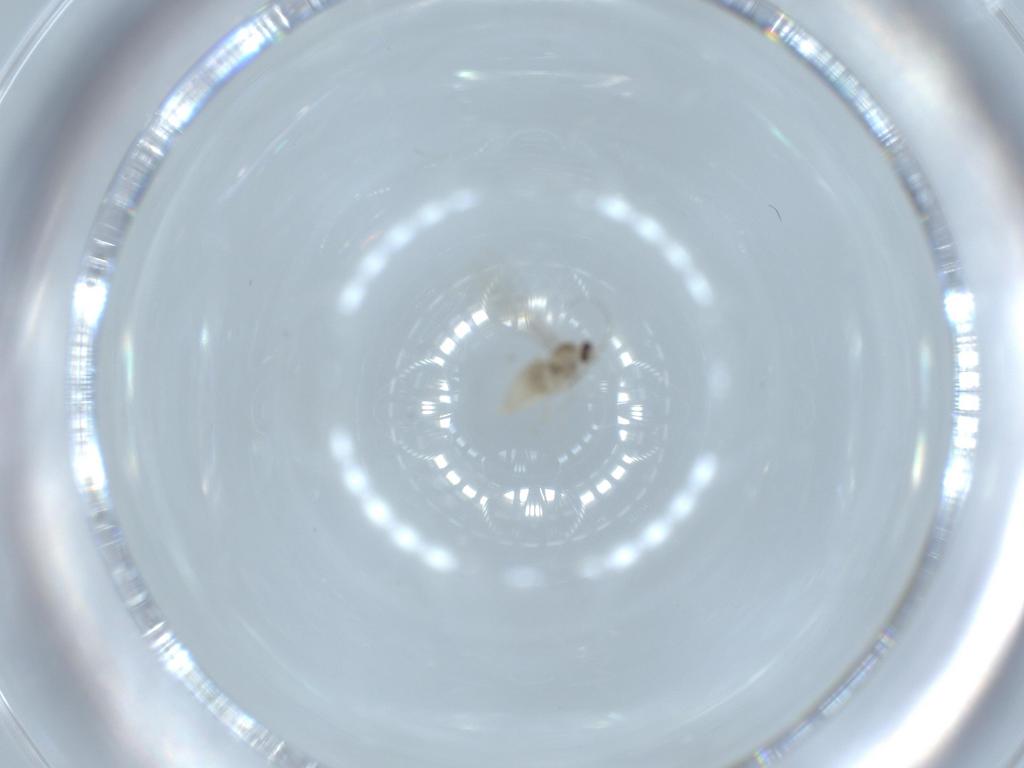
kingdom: Animalia
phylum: Arthropoda
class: Insecta
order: Diptera
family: Cecidomyiidae
